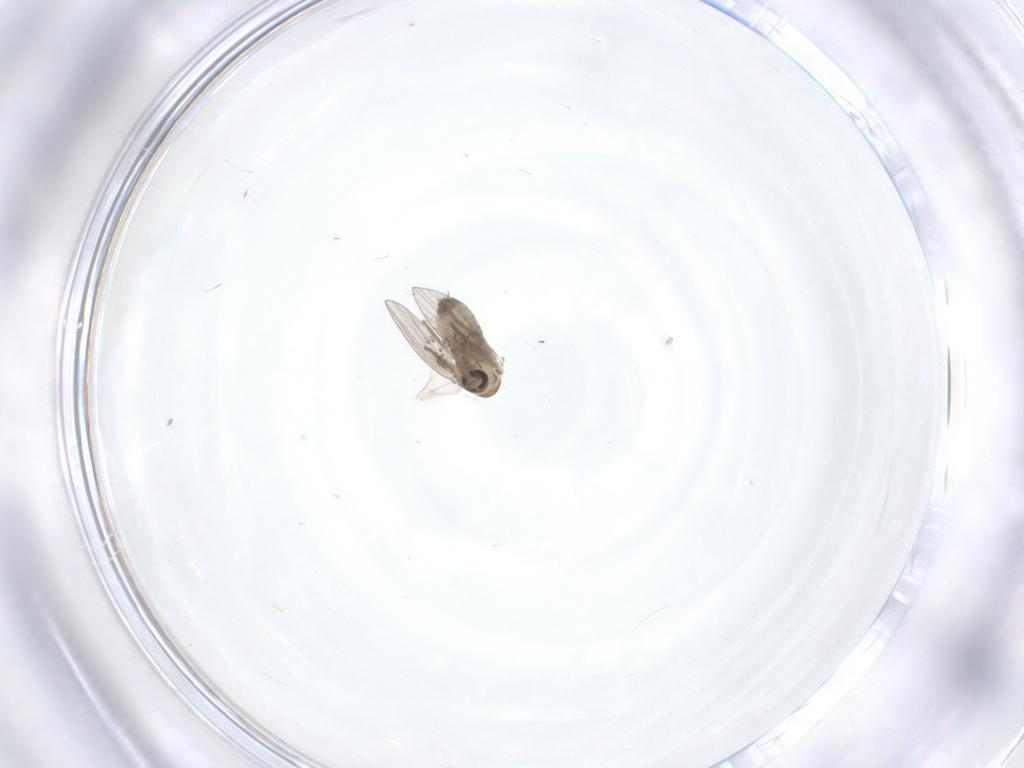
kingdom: Animalia
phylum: Arthropoda
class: Insecta
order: Diptera
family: Psychodidae
